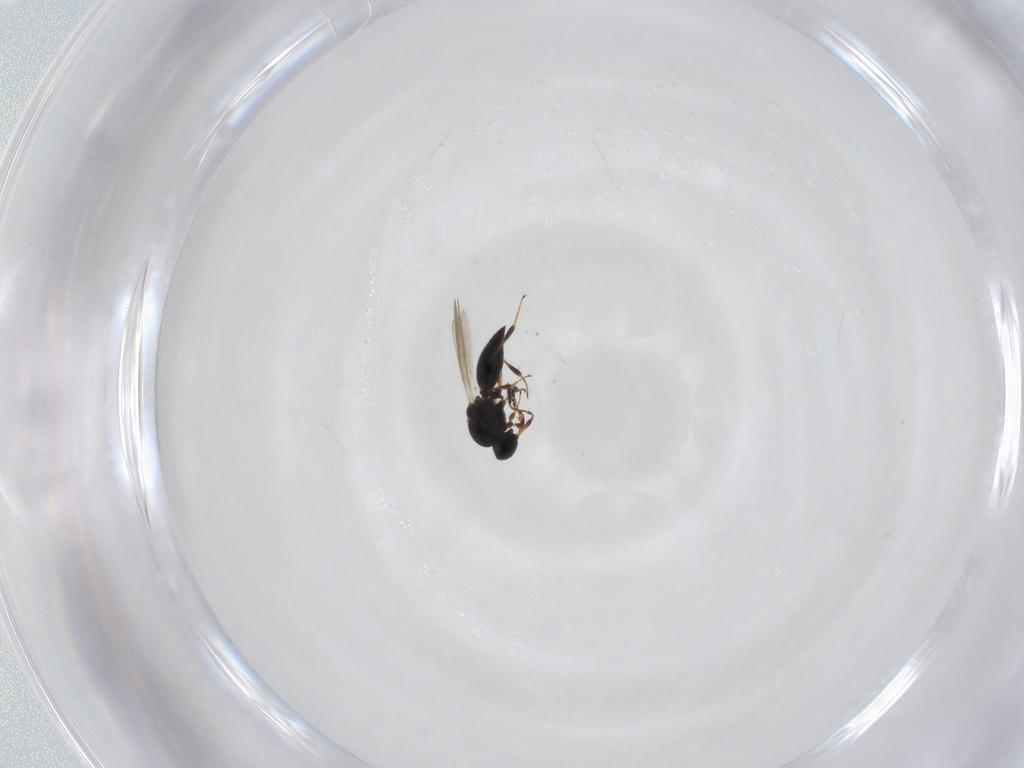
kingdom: Animalia
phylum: Arthropoda
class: Insecta
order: Hymenoptera
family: Platygastridae
